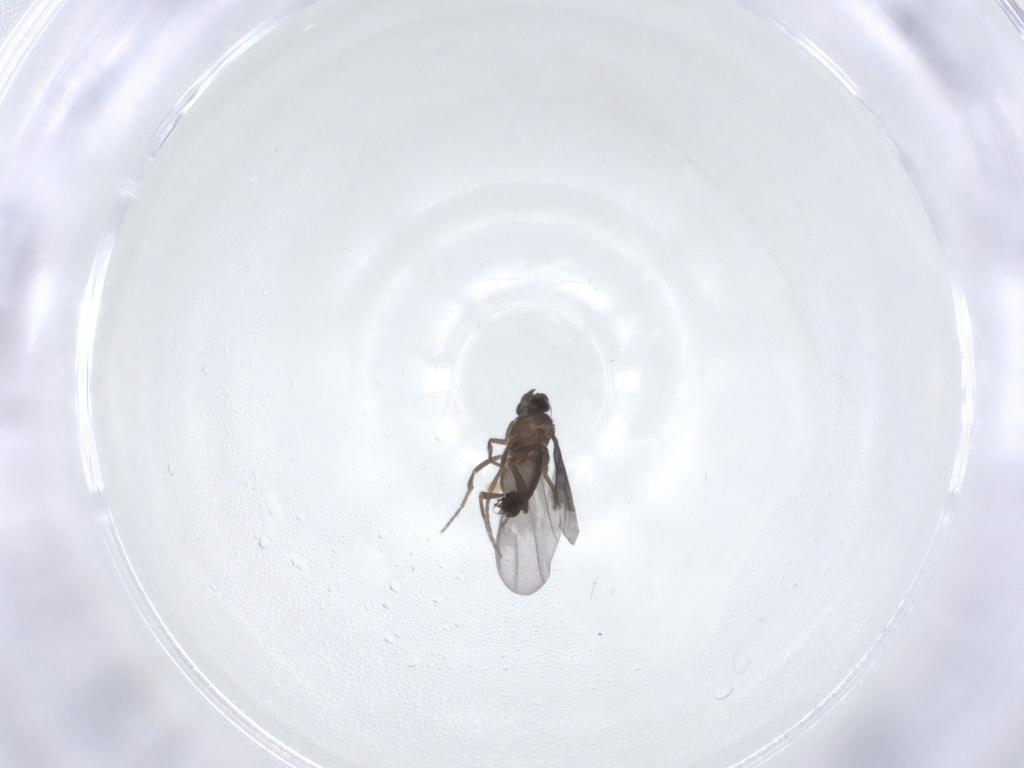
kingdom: Animalia
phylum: Arthropoda
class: Insecta
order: Diptera
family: Phoridae
